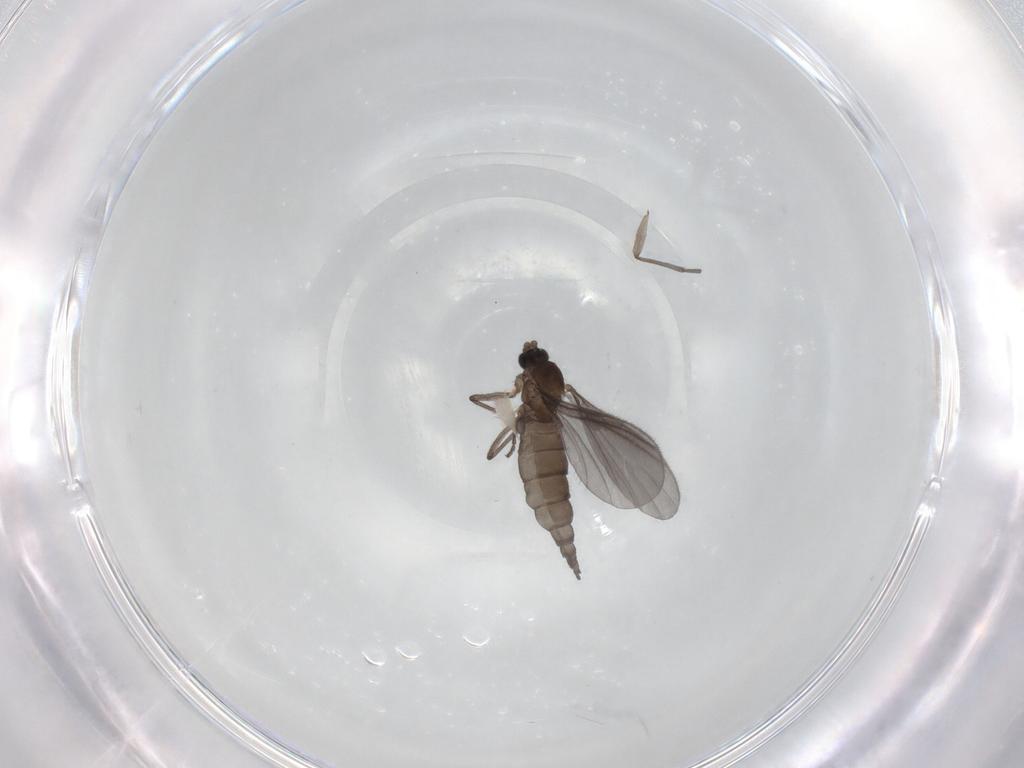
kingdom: Animalia
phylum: Arthropoda
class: Insecta
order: Diptera
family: Sciaridae
